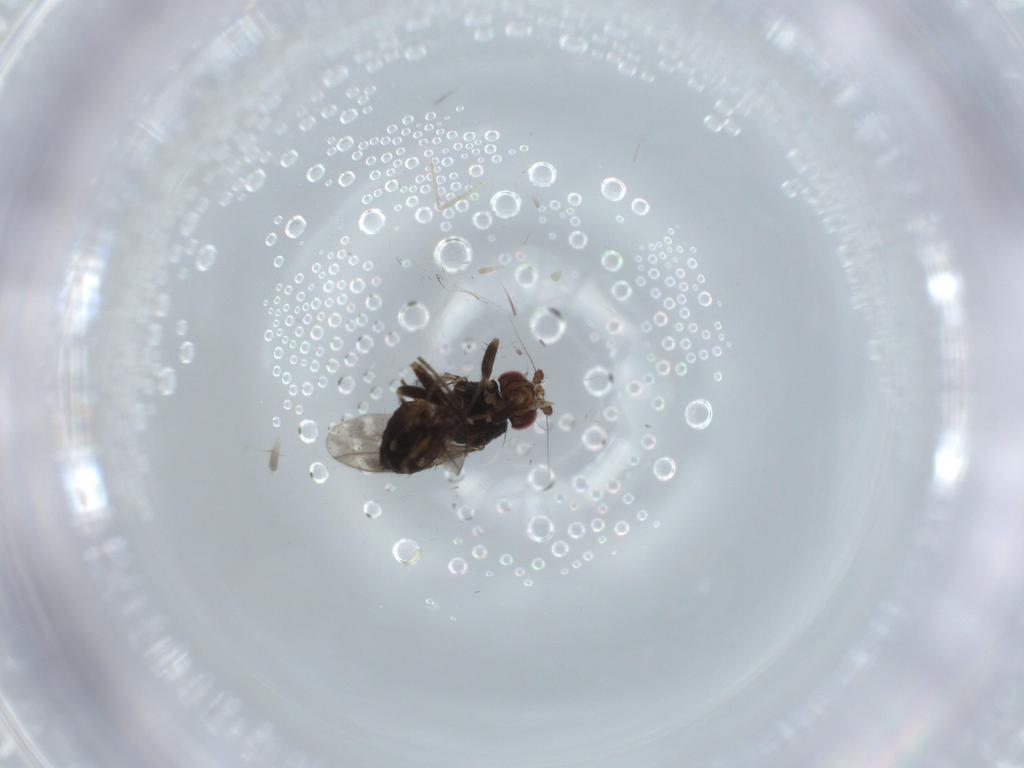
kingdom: Animalia
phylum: Arthropoda
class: Insecta
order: Diptera
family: Sphaeroceridae
